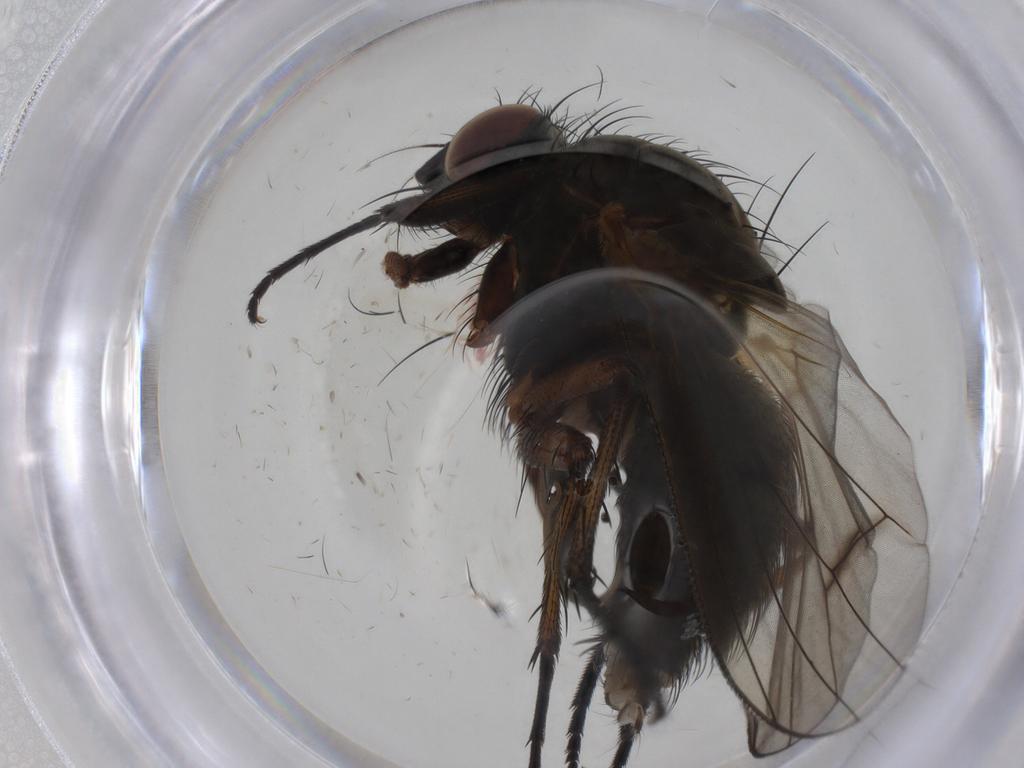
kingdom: Animalia
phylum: Arthropoda
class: Insecta
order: Diptera
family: Anthomyiidae
